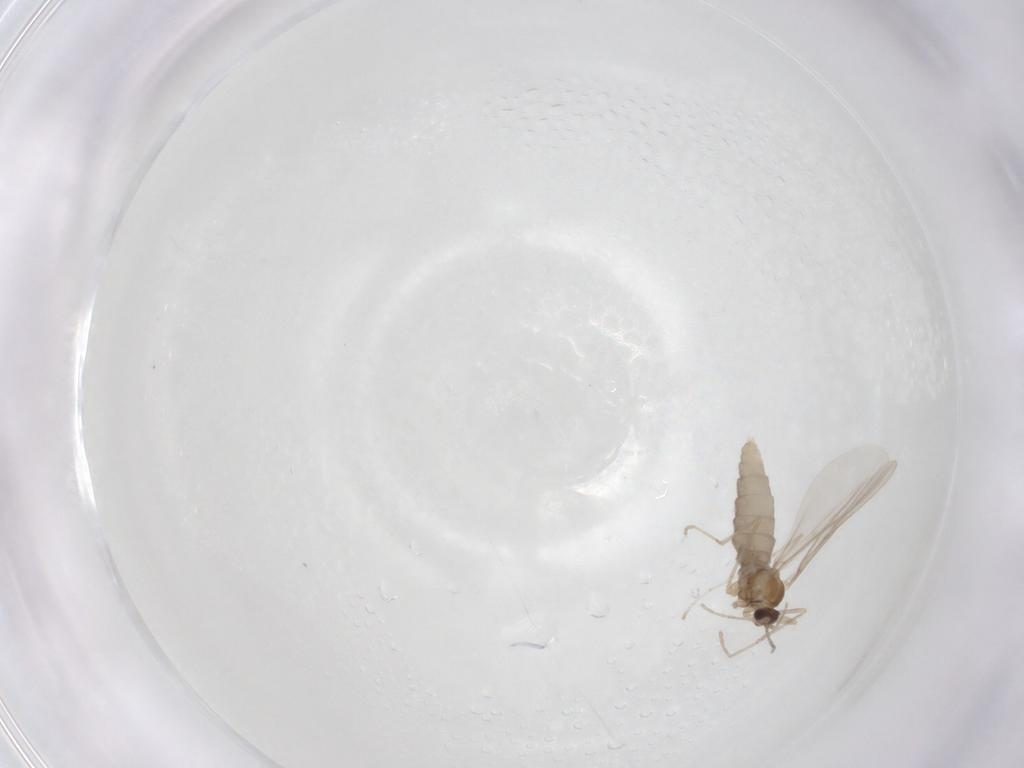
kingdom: Animalia
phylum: Arthropoda
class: Insecta
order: Diptera
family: Cecidomyiidae
